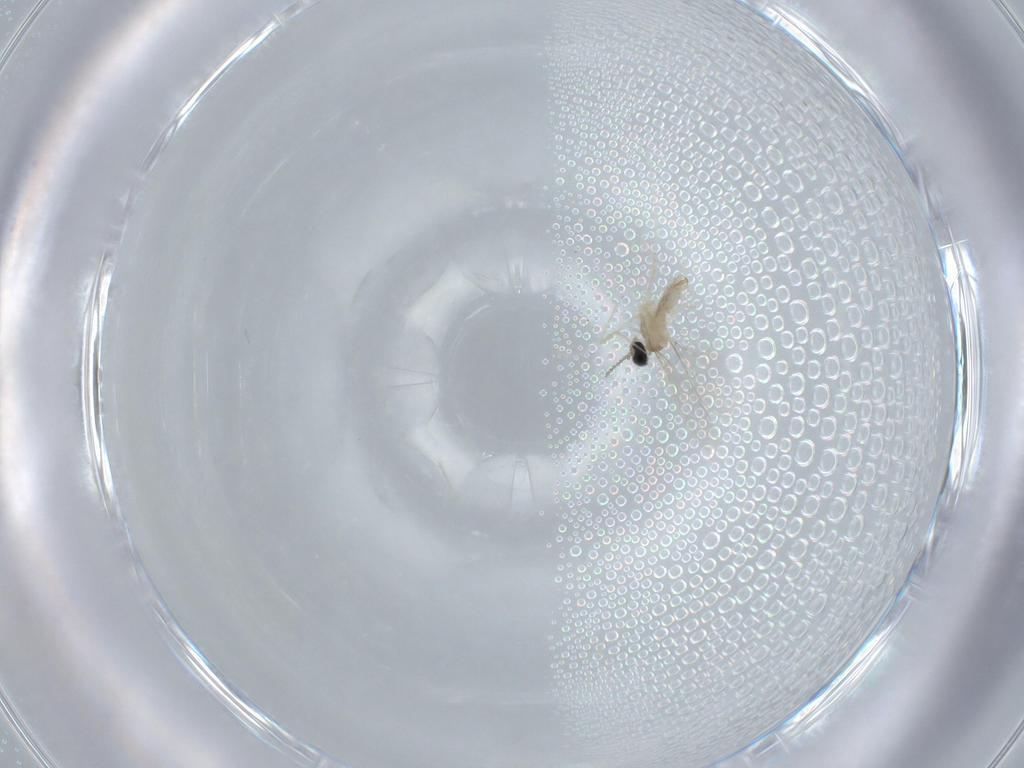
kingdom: Animalia
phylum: Arthropoda
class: Insecta
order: Diptera
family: Cecidomyiidae
